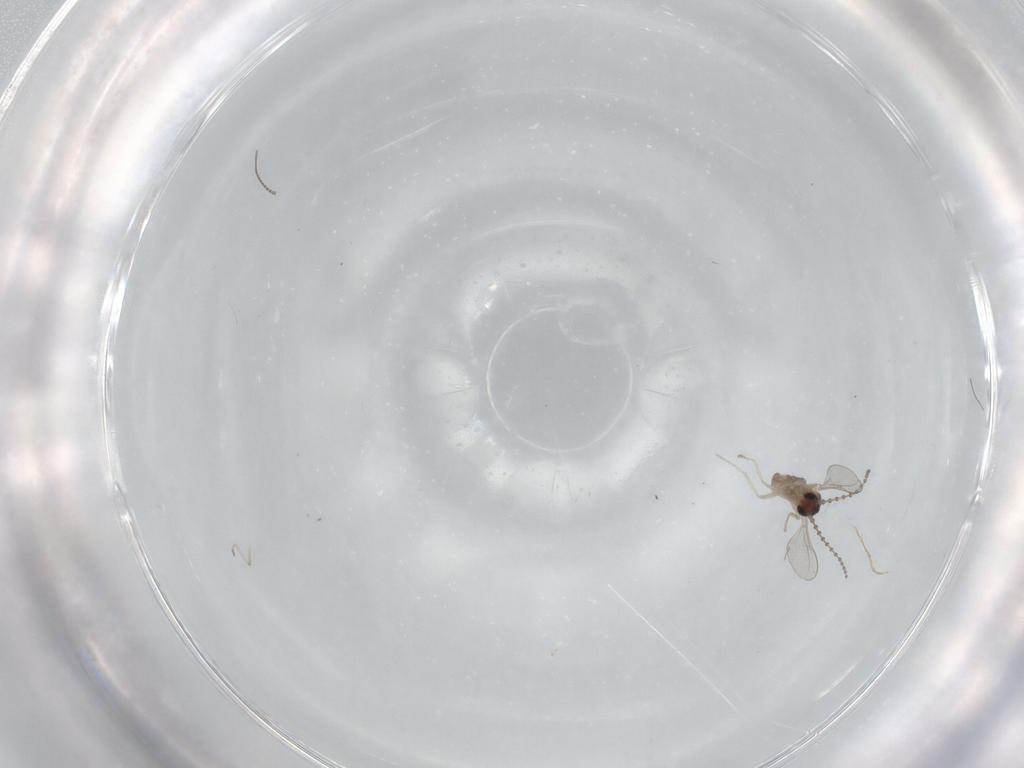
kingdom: Animalia
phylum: Arthropoda
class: Insecta
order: Diptera
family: Cecidomyiidae
